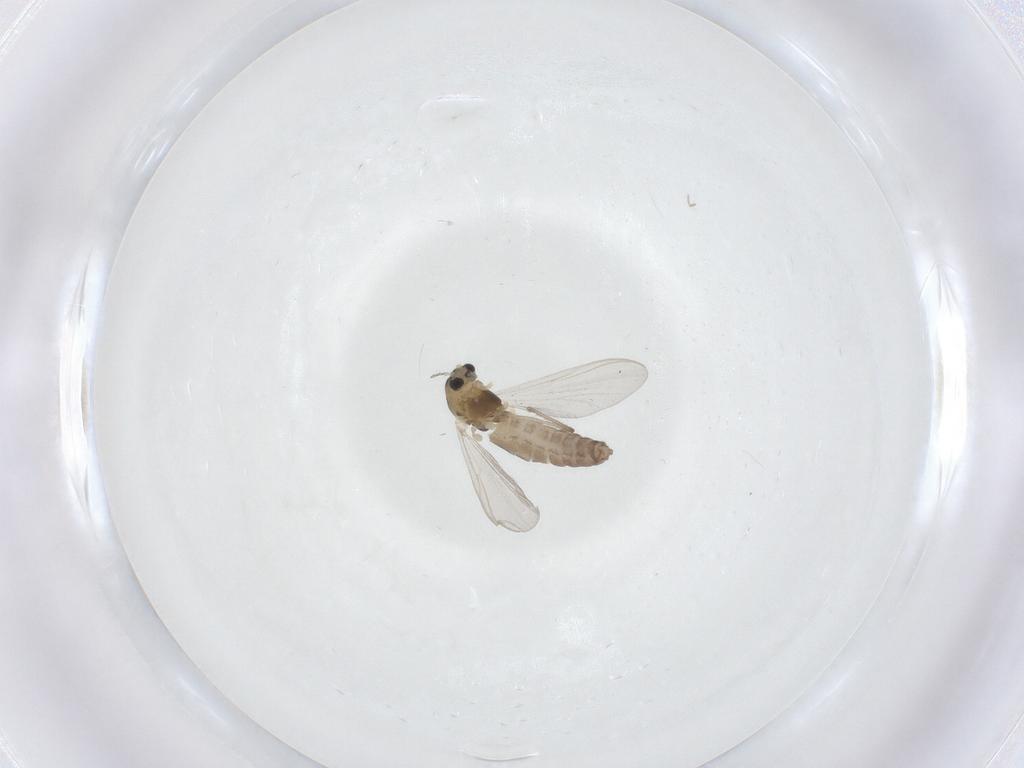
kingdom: Animalia
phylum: Arthropoda
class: Insecta
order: Diptera
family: Chironomidae
